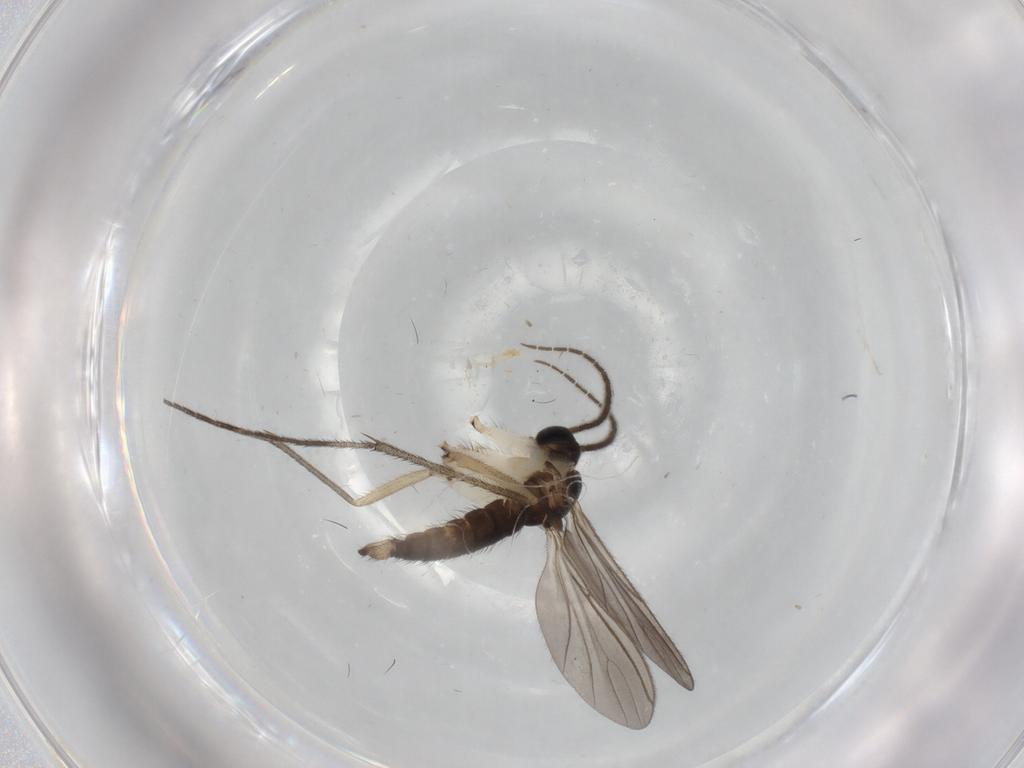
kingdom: Animalia
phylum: Arthropoda
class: Insecta
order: Diptera
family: Sciaridae
